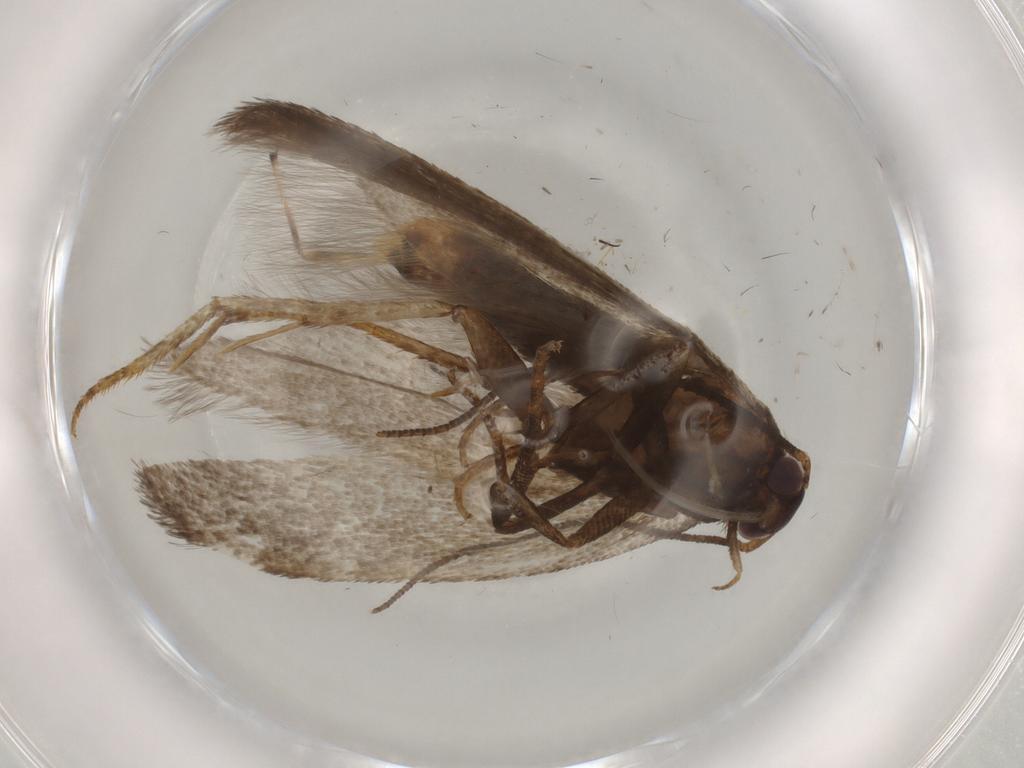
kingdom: Animalia
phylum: Arthropoda
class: Insecta
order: Lepidoptera
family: Gelechiidae
